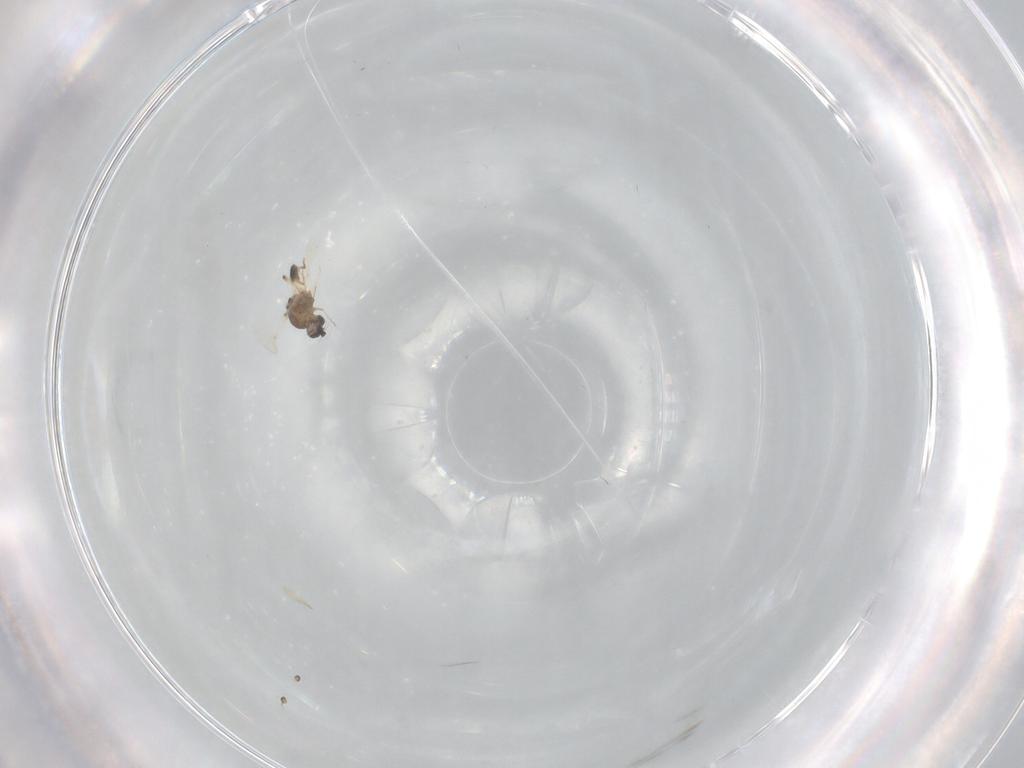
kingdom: Animalia
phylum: Arthropoda
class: Insecta
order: Diptera
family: Ceratopogonidae
